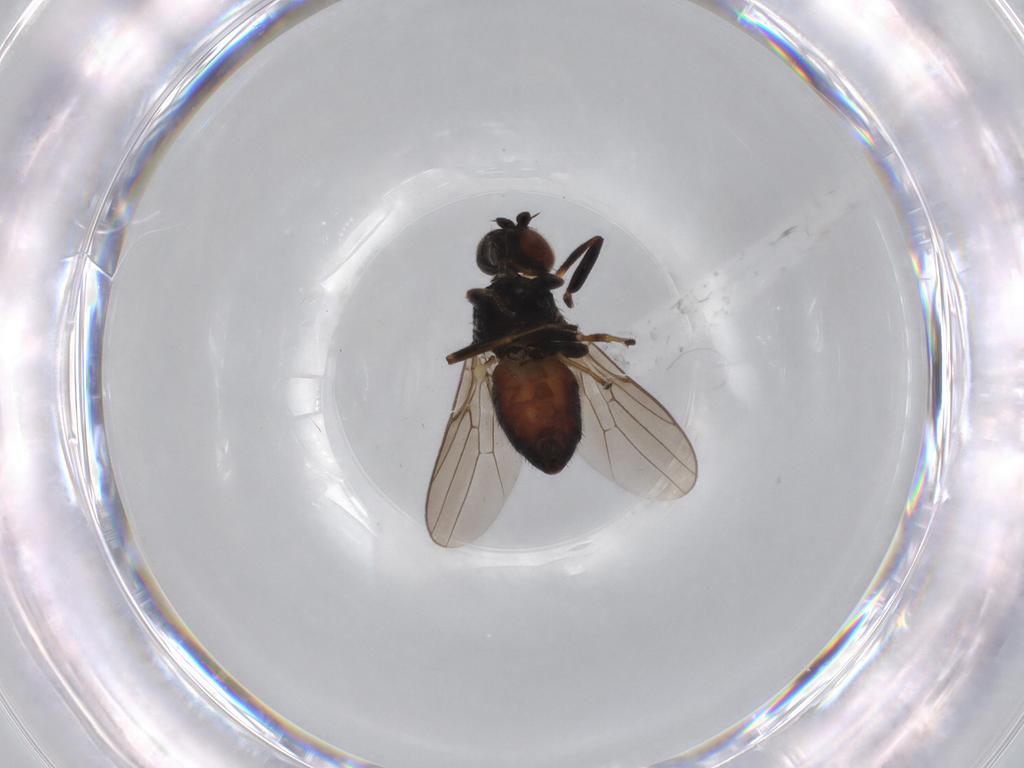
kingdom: Animalia
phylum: Arthropoda
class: Insecta
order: Diptera
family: Chloropidae
